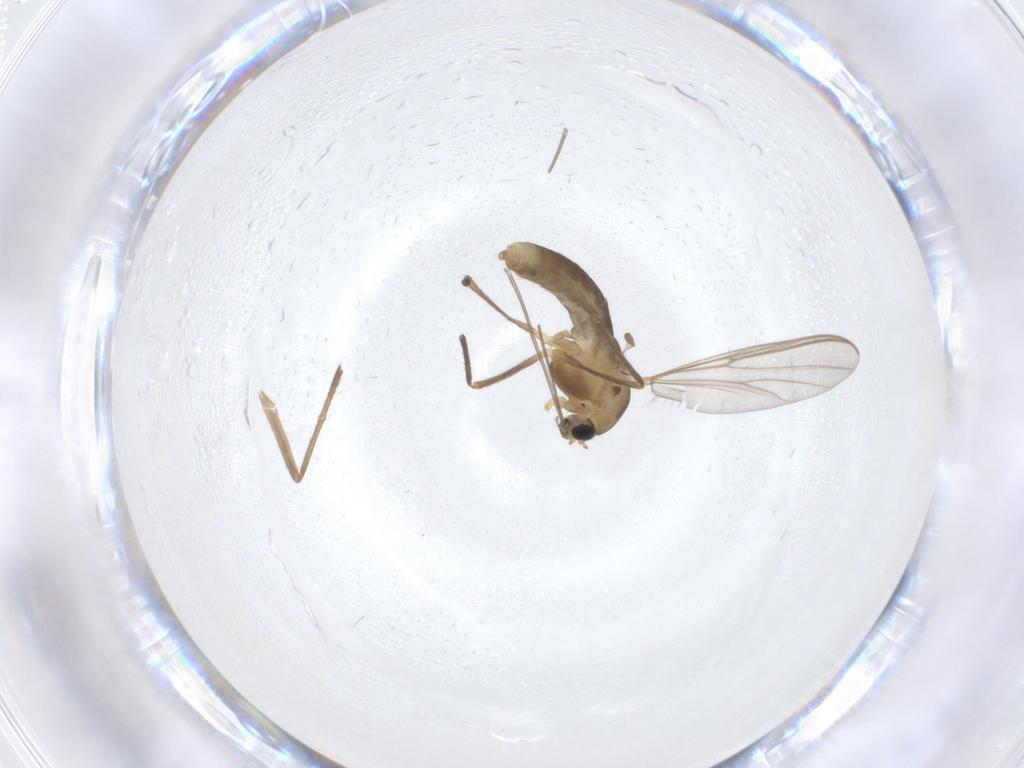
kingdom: Animalia
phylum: Arthropoda
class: Insecta
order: Diptera
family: Chironomidae
